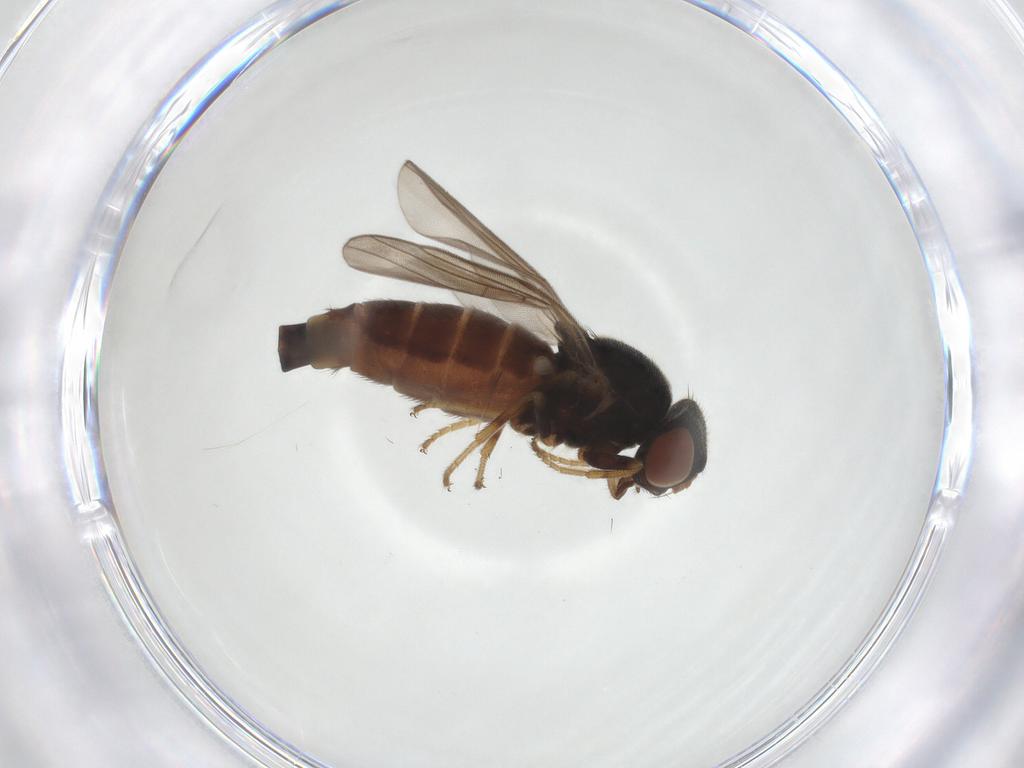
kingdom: Animalia
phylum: Arthropoda
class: Insecta
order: Diptera
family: Chloropidae
